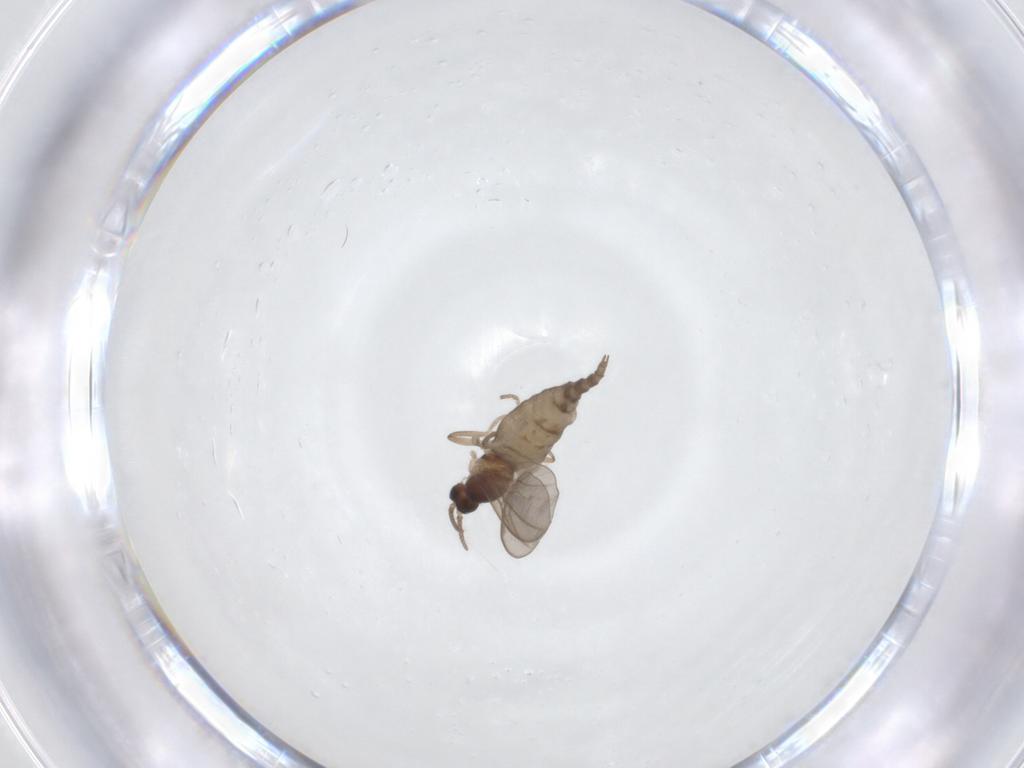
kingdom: Animalia
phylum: Arthropoda
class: Insecta
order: Diptera
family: Cecidomyiidae
